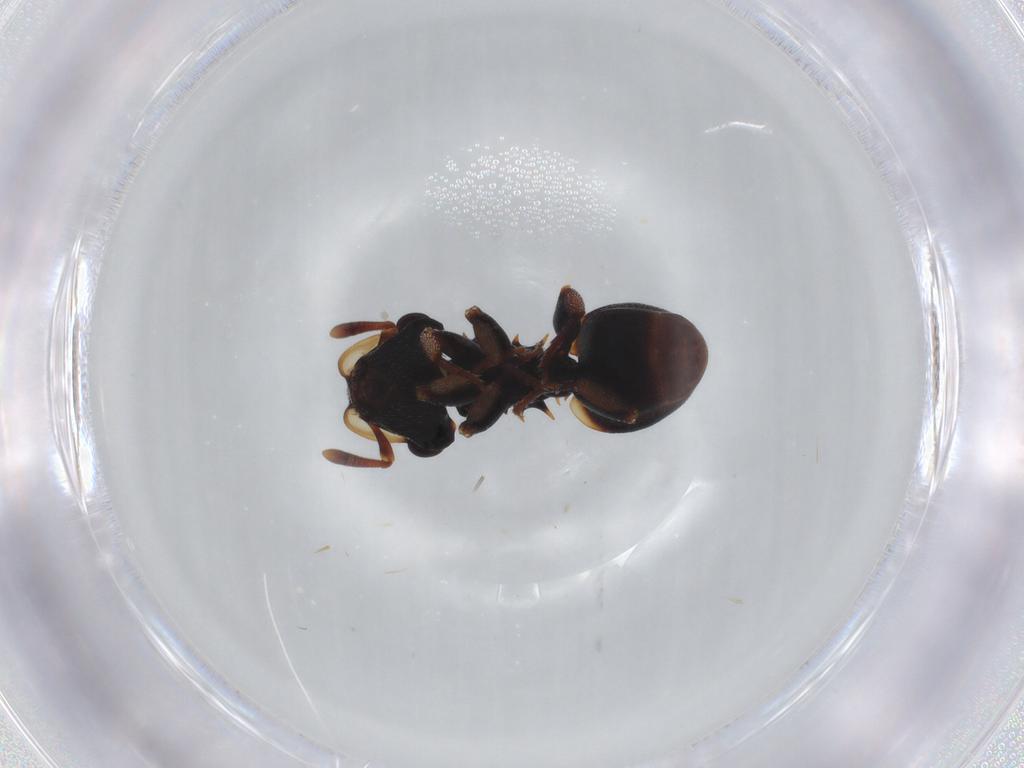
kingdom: Animalia
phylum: Arthropoda
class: Insecta
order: Hymenoptera
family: Formicidae
